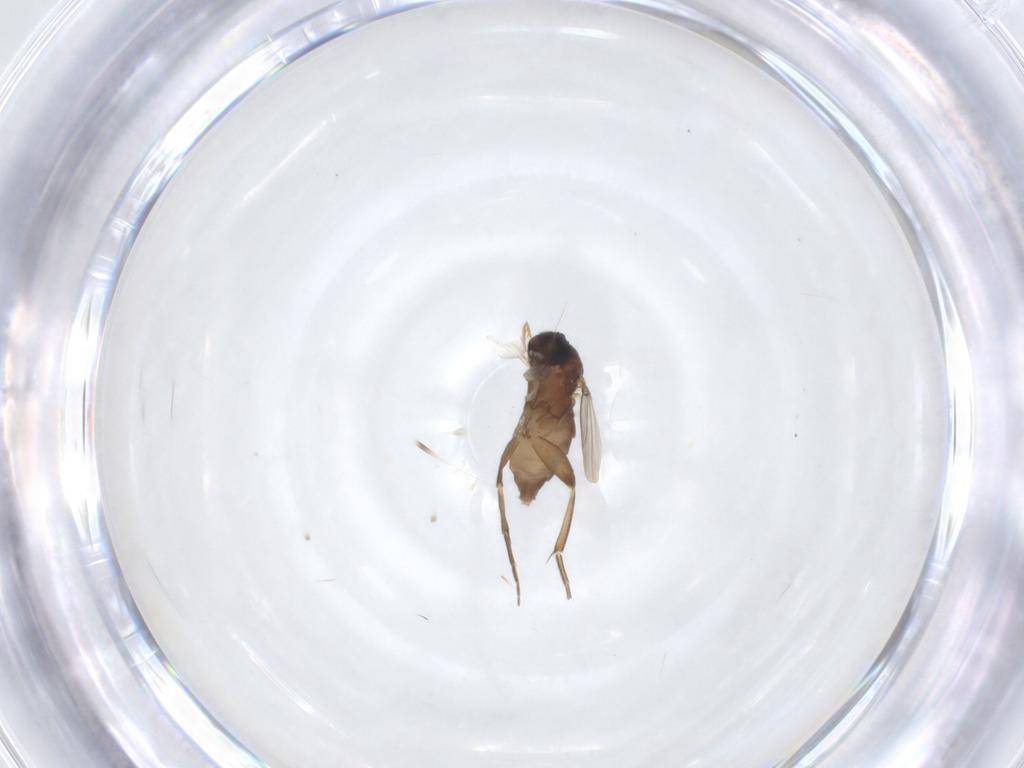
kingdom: Animalia
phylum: Arthropoda
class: Insecta
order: Diptera
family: Phoridae
